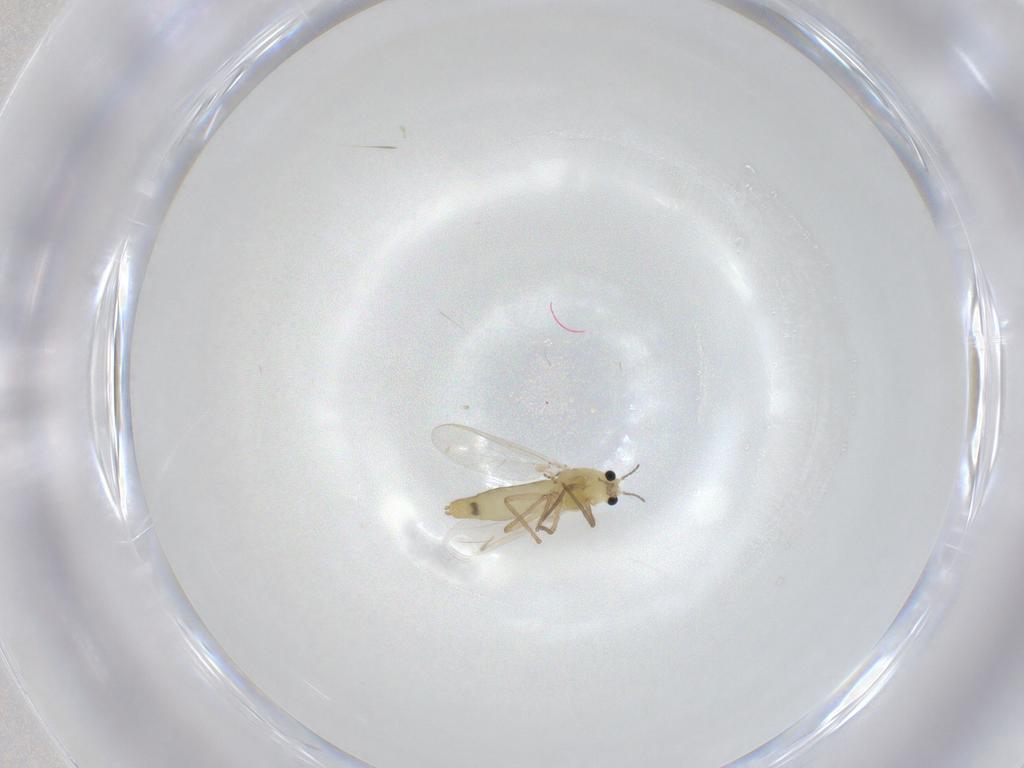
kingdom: Animalia
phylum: Arthropoda
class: Insecta
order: Diptera
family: Chironomidae
